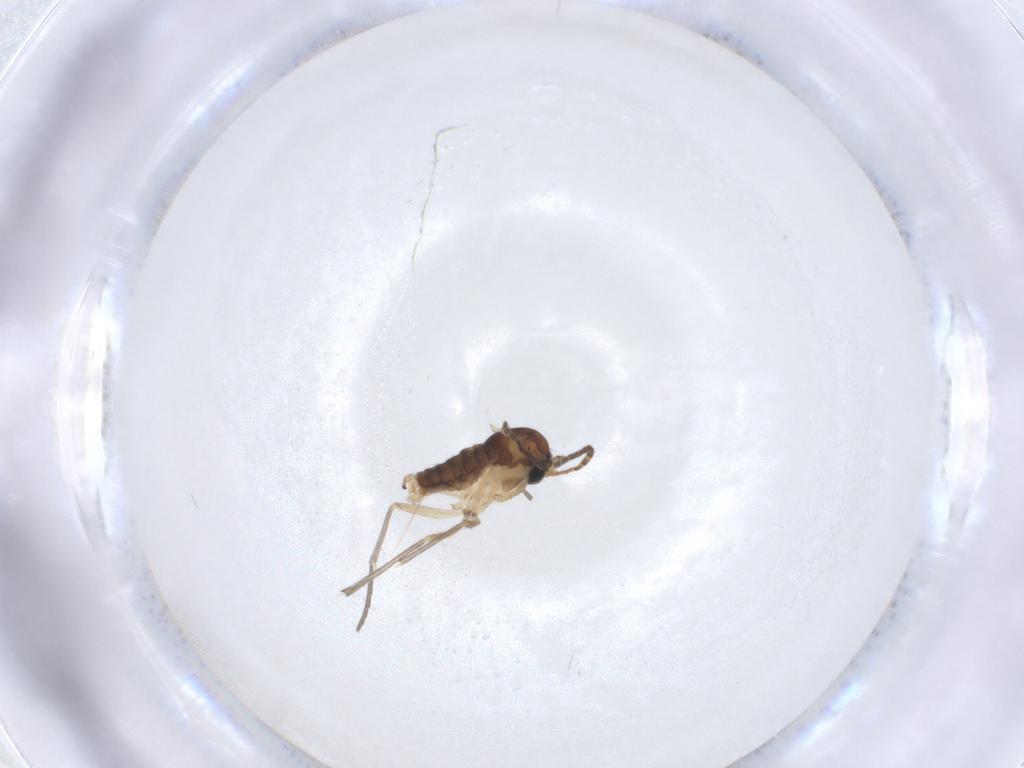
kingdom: Animalia
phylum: Arthropoda
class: Insecta
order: Diptera
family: Sciaridae
